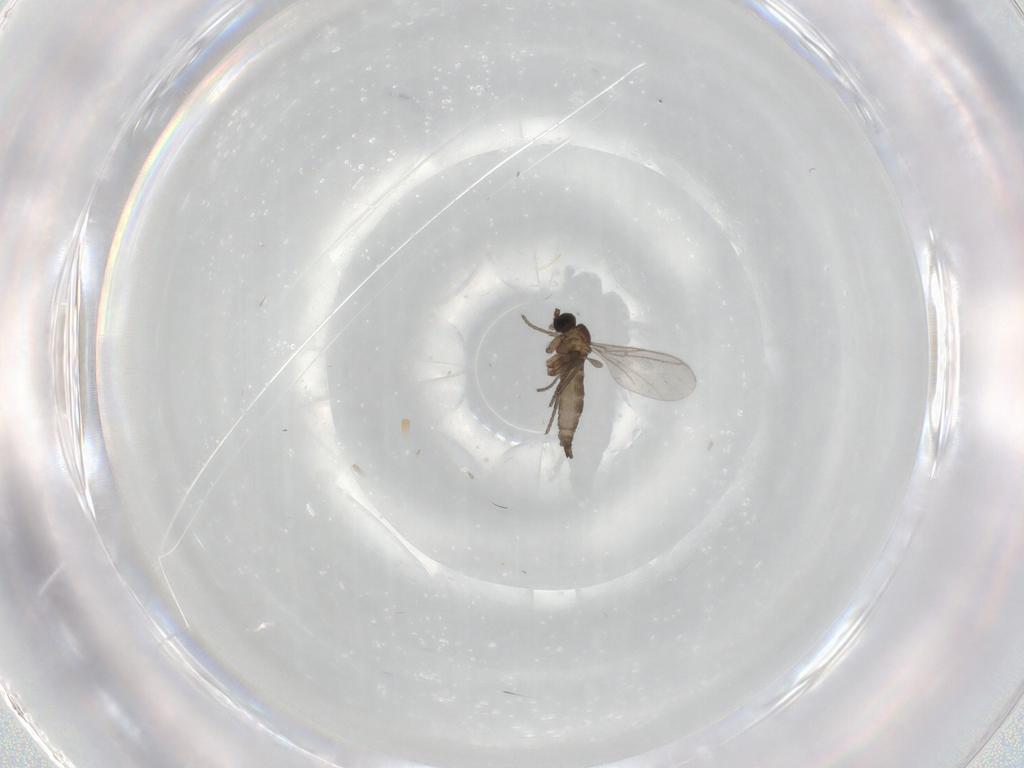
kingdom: Animalia
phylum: Arthropoda
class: Insecta
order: Diptera
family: Sciaridae
